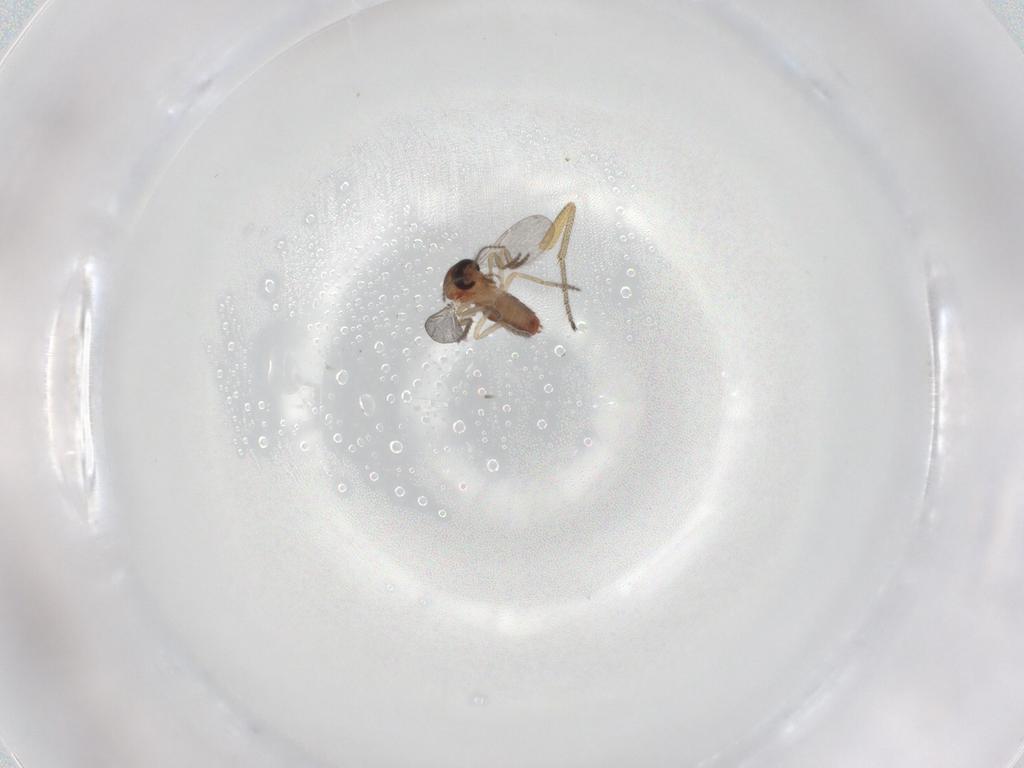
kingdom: Animalia
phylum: Arthropoda
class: Insecta
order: Diptera
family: Ceratopogonidae
